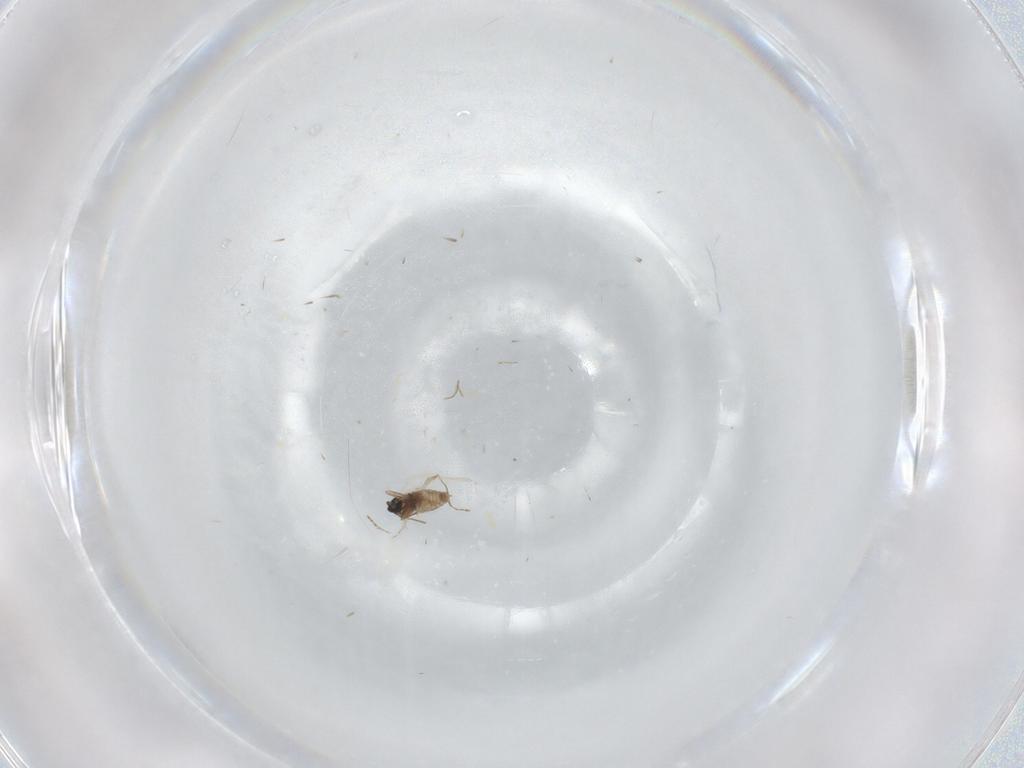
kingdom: Animalia
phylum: Arthropoda
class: Insecta
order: Diptera
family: Cecidomyiidae
